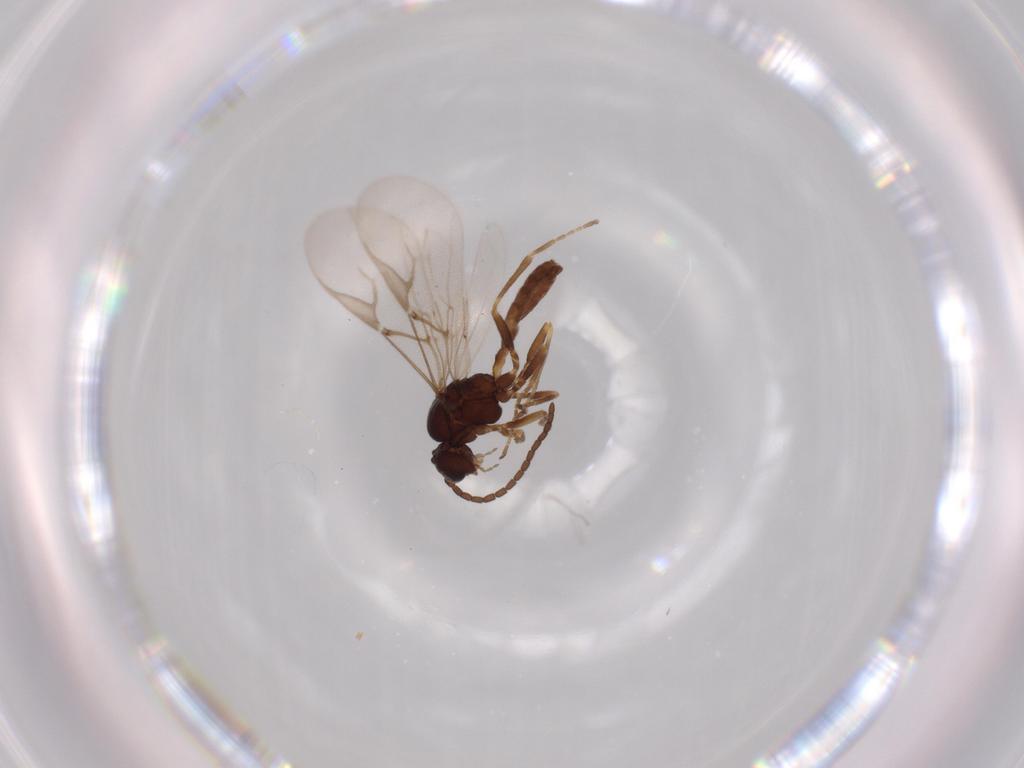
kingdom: Animalia
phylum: Arthropoda
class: Insecta
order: Hymenoptera
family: Braconidae
